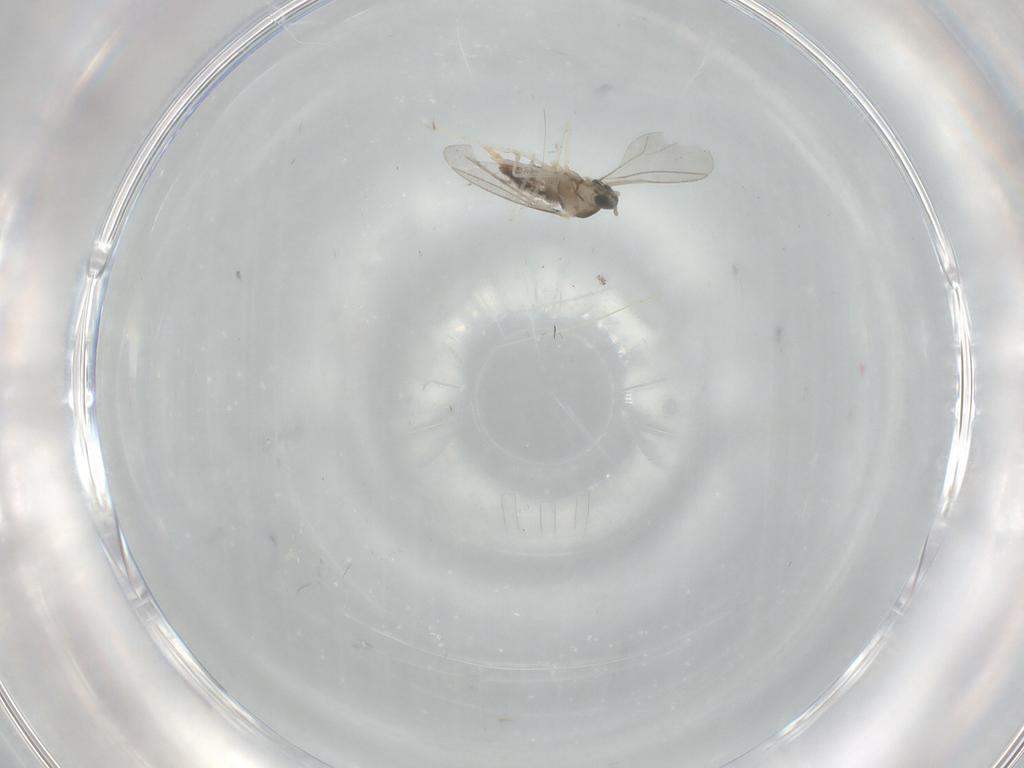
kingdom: Animalia
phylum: Arthropoda
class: Insecta
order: Diptera
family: Cecidomyiidae
